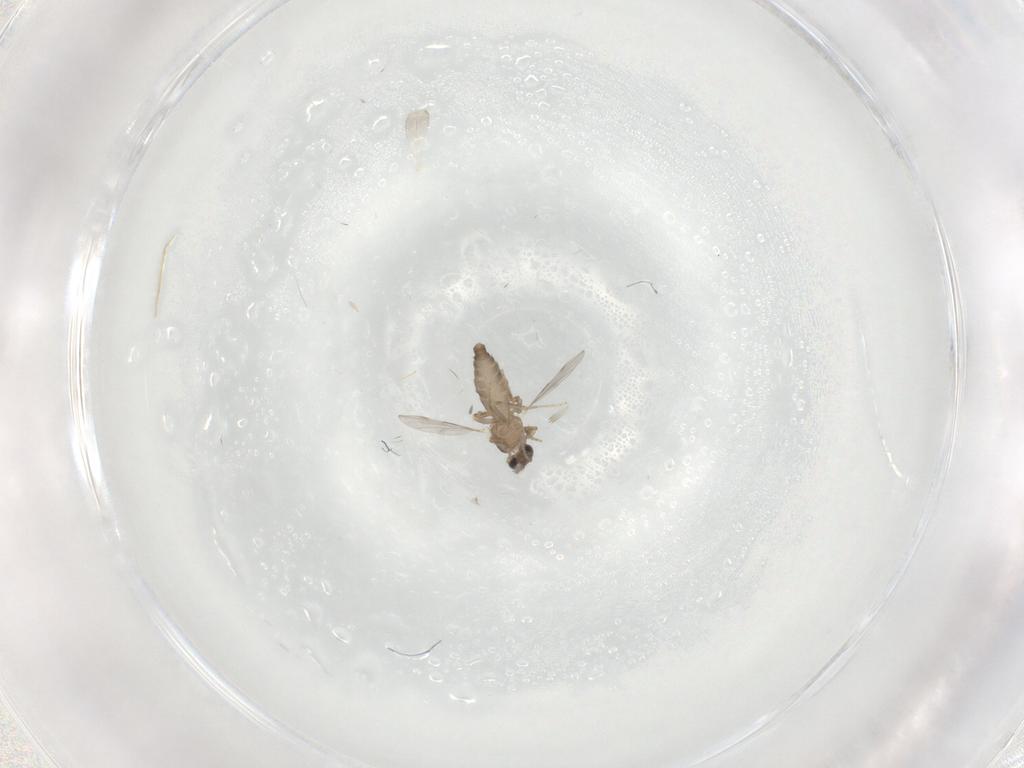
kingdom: Animalia
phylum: Arthropoda
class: Insecta
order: Diptera
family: Ceratopogonidae
